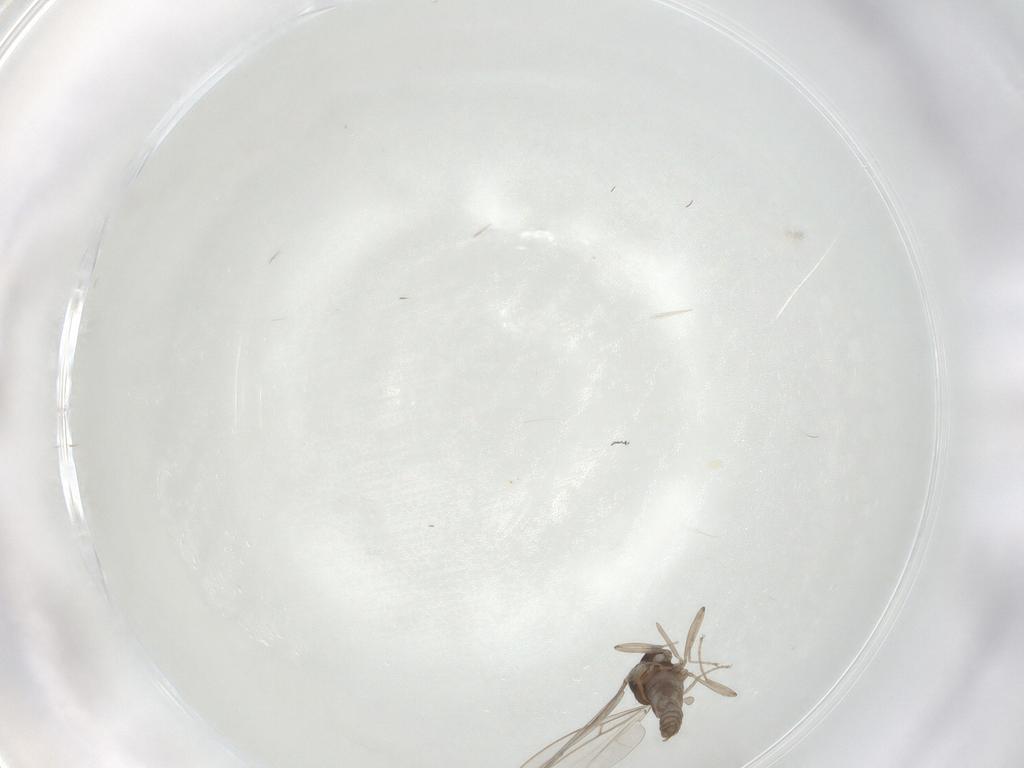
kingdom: Animalia
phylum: Arthropoda
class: Insecta
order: Diptera
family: Cecidomyiidae
